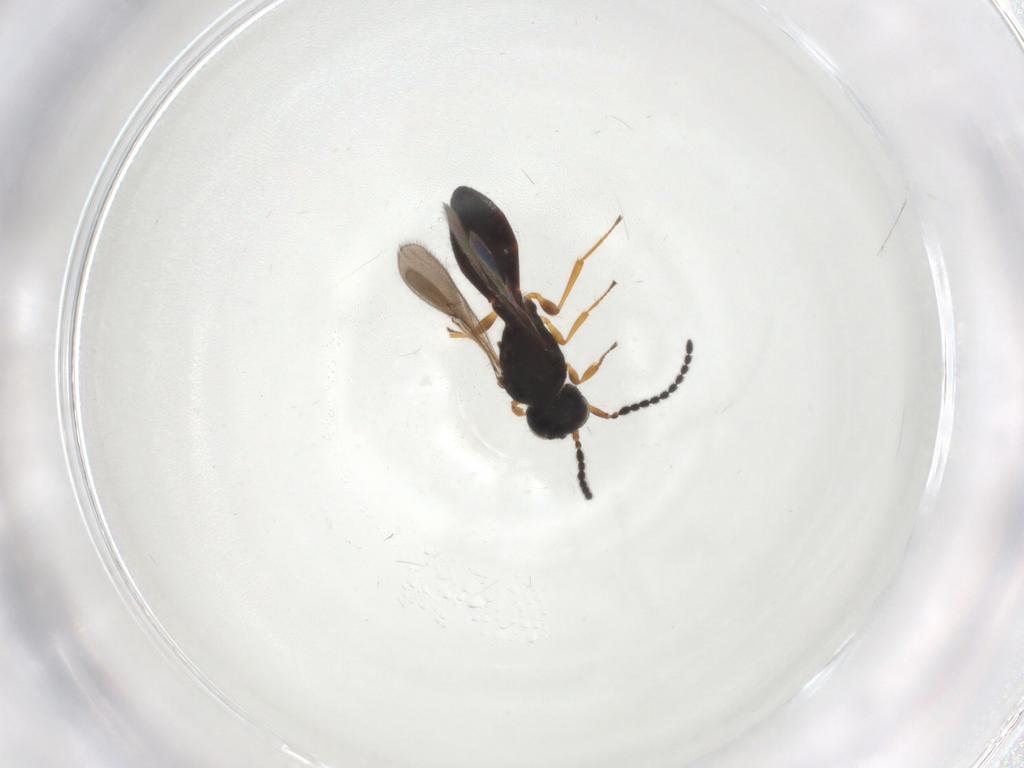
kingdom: Animalia
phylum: Arthropoda
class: Insecta
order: Hymenoptera
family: Scelionidae
